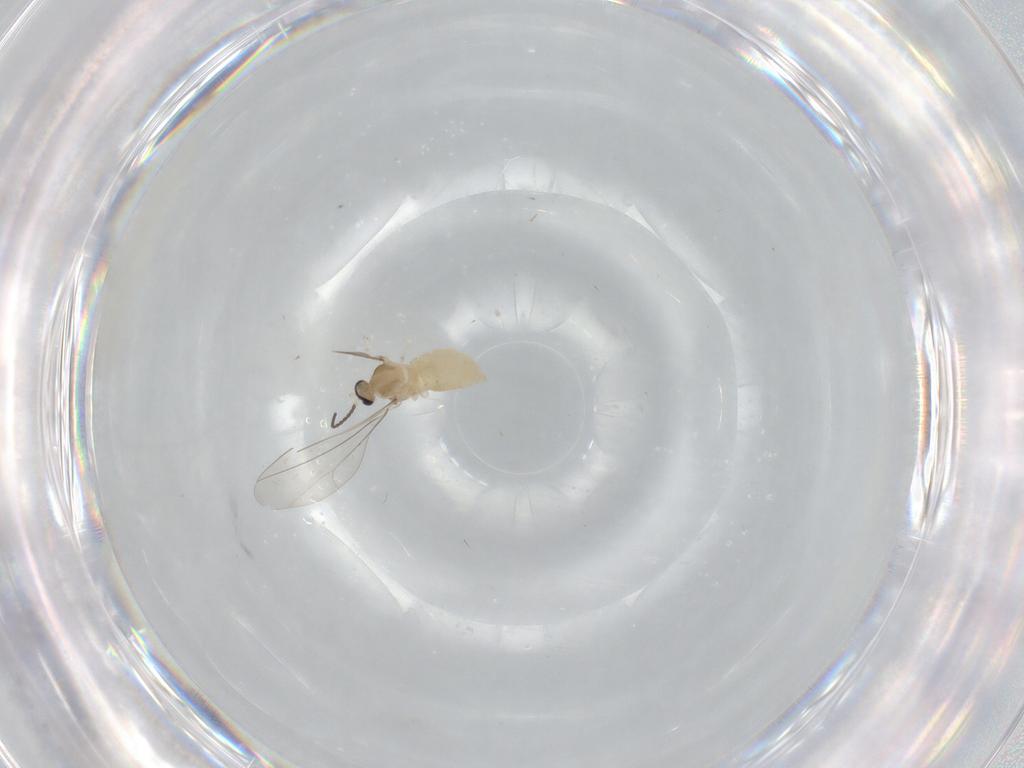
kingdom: Animalia
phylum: Arthropoda
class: Insecta
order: Diptera
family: Cecidomyiidae
